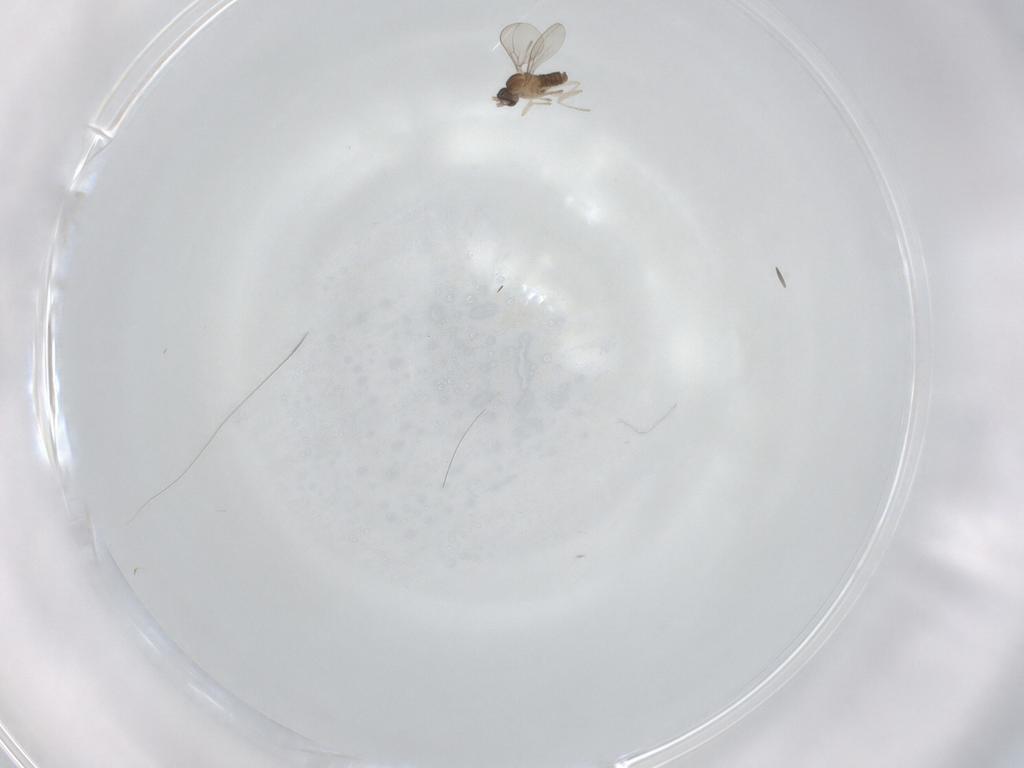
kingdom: Animalia
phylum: Arthropoda
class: Insecta
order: Diptera
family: Cecidomyiidae
